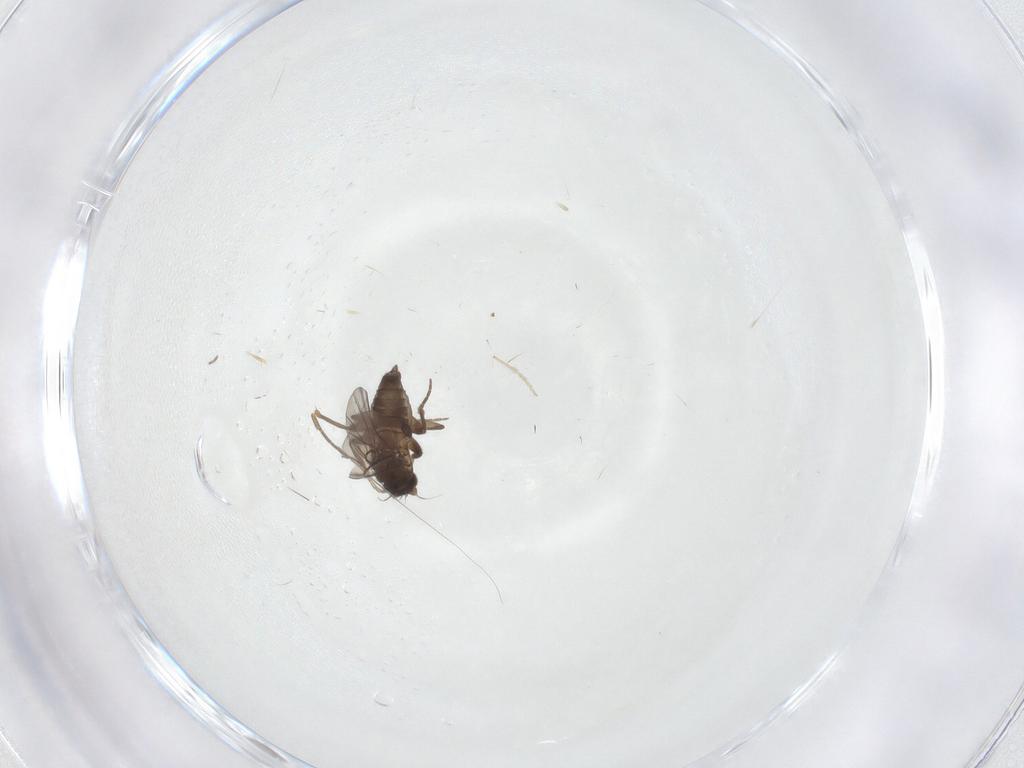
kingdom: Animalia
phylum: Arthropoda
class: Insecta
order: Diptera
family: Phoridae
